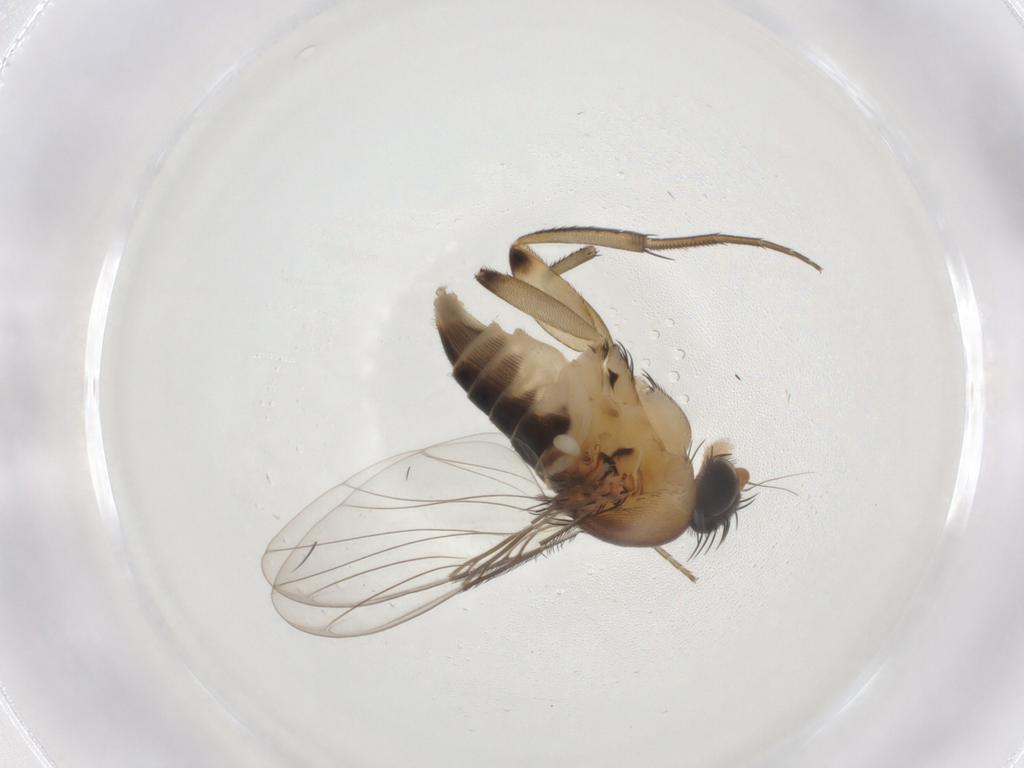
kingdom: Animalia
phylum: Arthropoda
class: Insecta
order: Diptera
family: Phoridae
